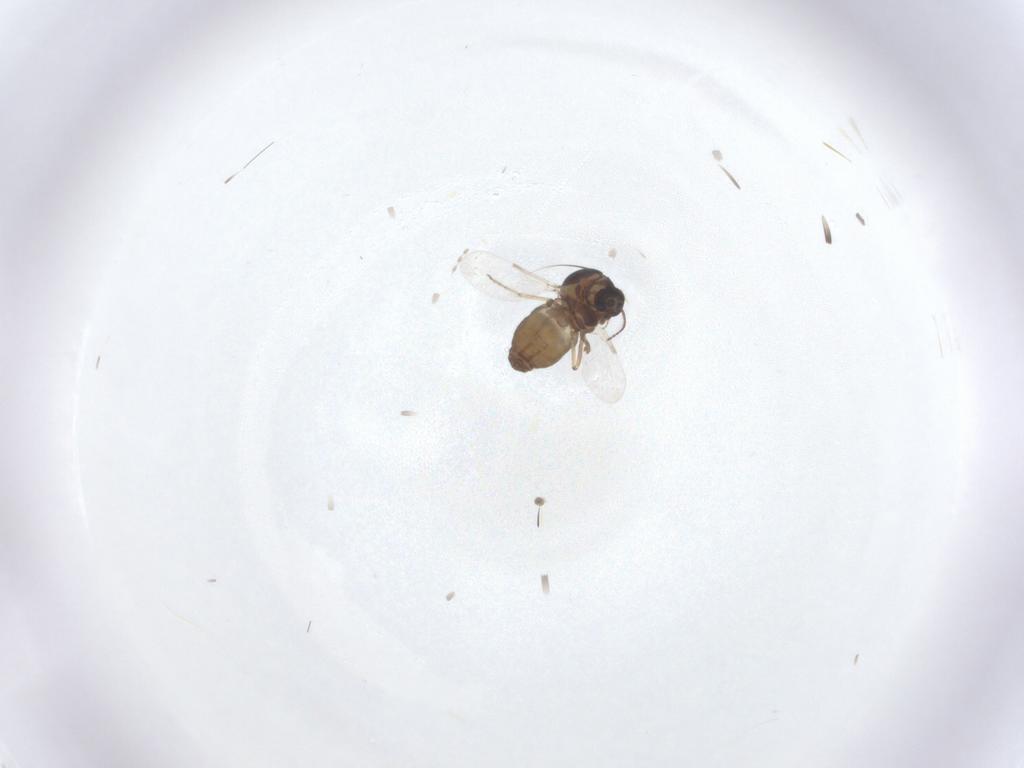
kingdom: Animalia
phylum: Arthropoda
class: Insecta
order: Diptera
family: Ceratopogonidae
